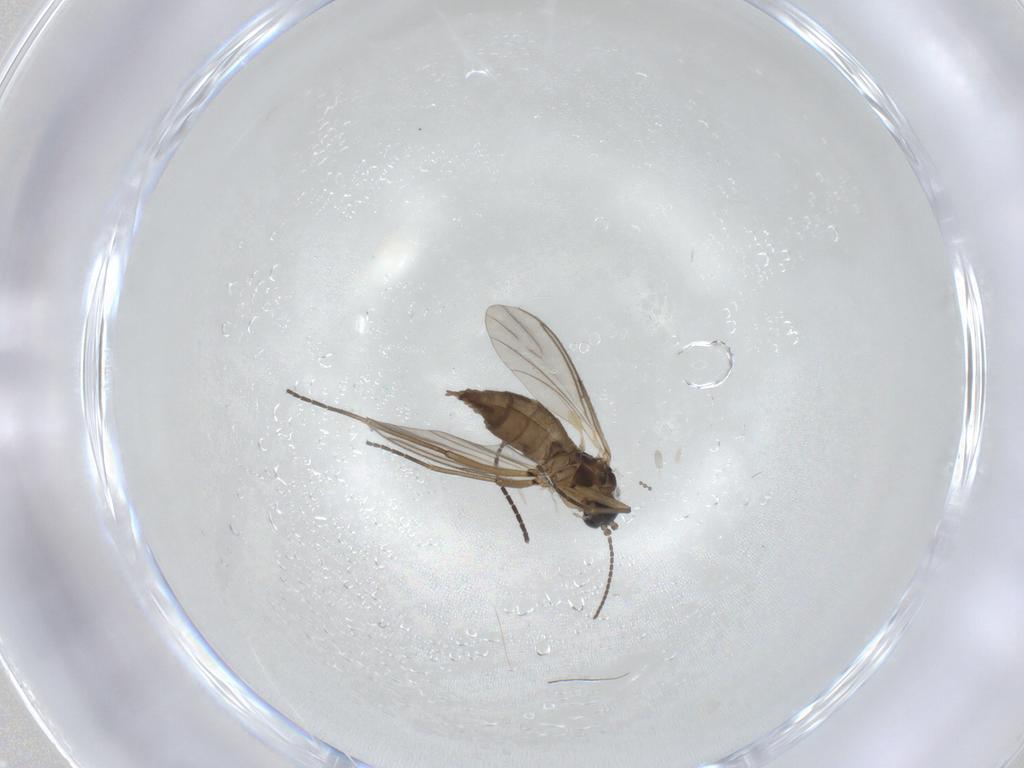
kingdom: Animalia
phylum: Arthropoda
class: Insecta
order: Diptera
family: Sciaridae
